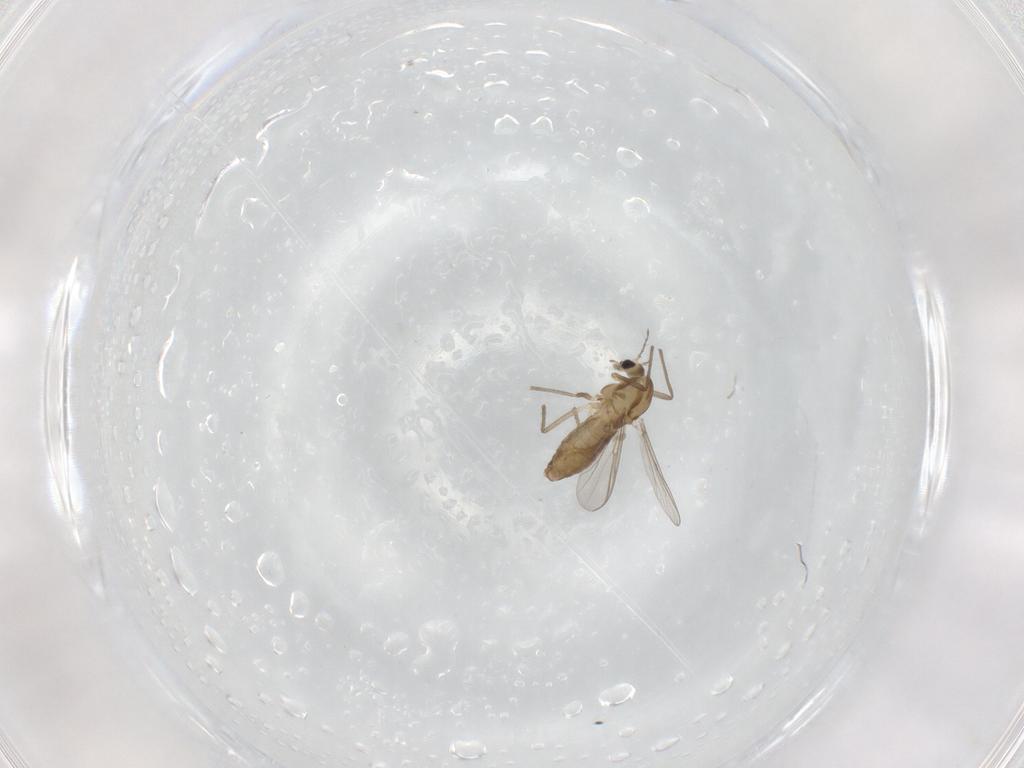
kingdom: Animalia
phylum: Arthropoda
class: Insecta
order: Diptera
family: Chironomidae
